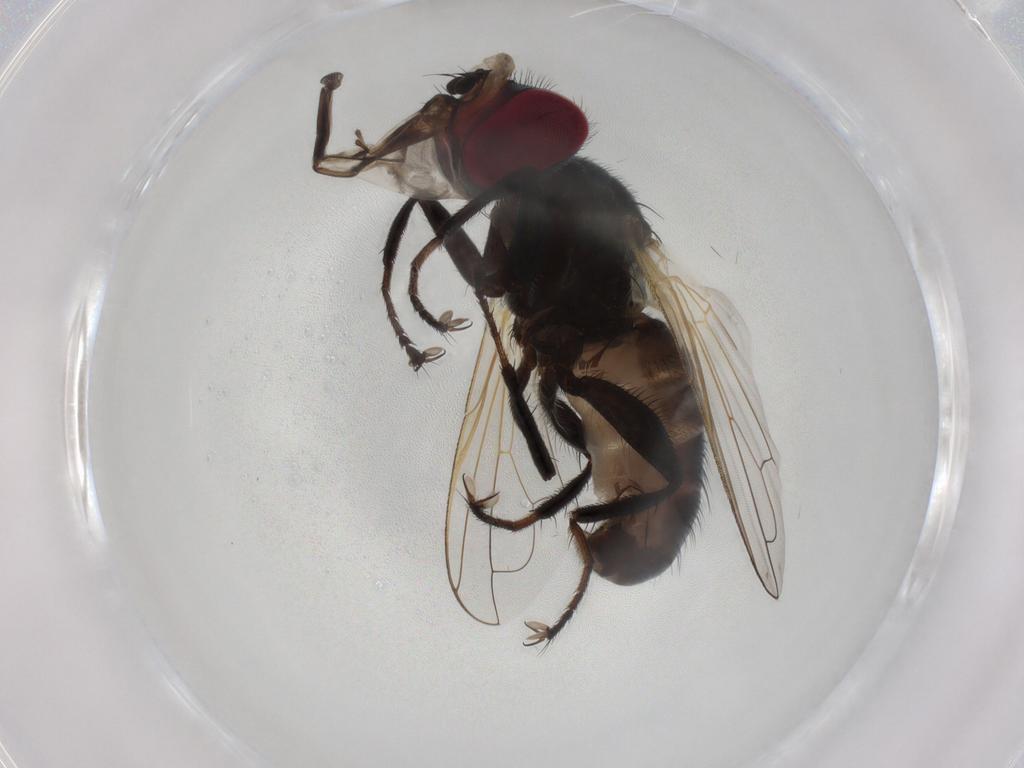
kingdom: Animalia
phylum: Arthropoda
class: Insecta
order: Diptera
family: Tachinidae
